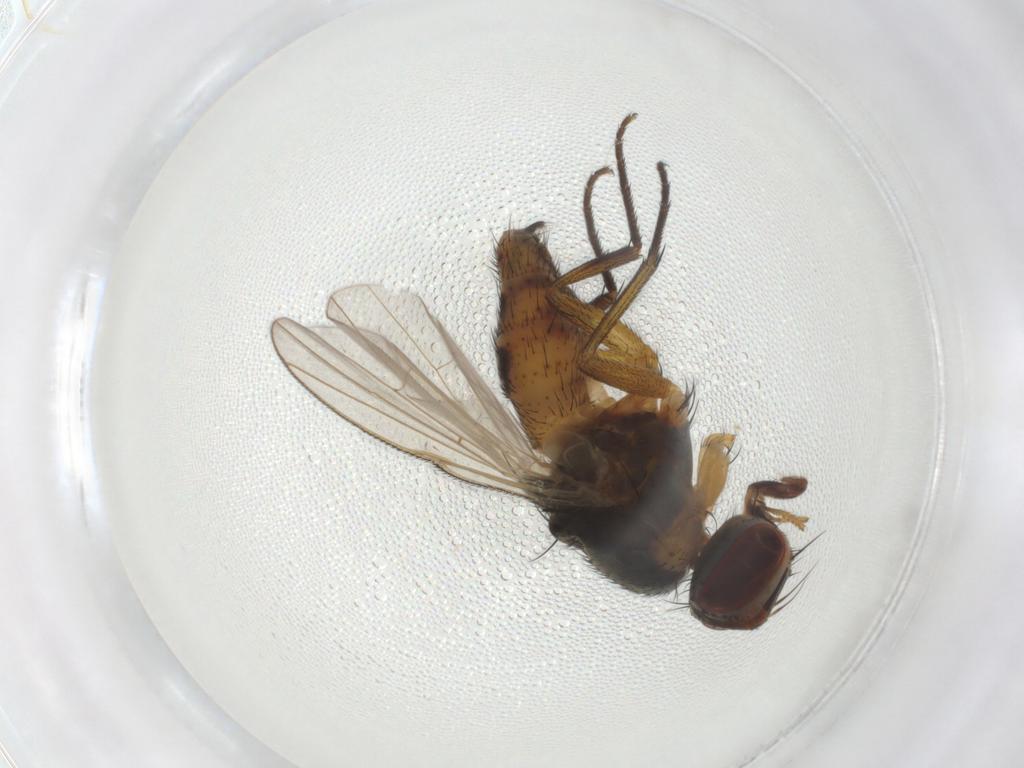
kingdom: Animalia
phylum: Arthropoda
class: Insecta
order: Diptera
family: Muscidae
